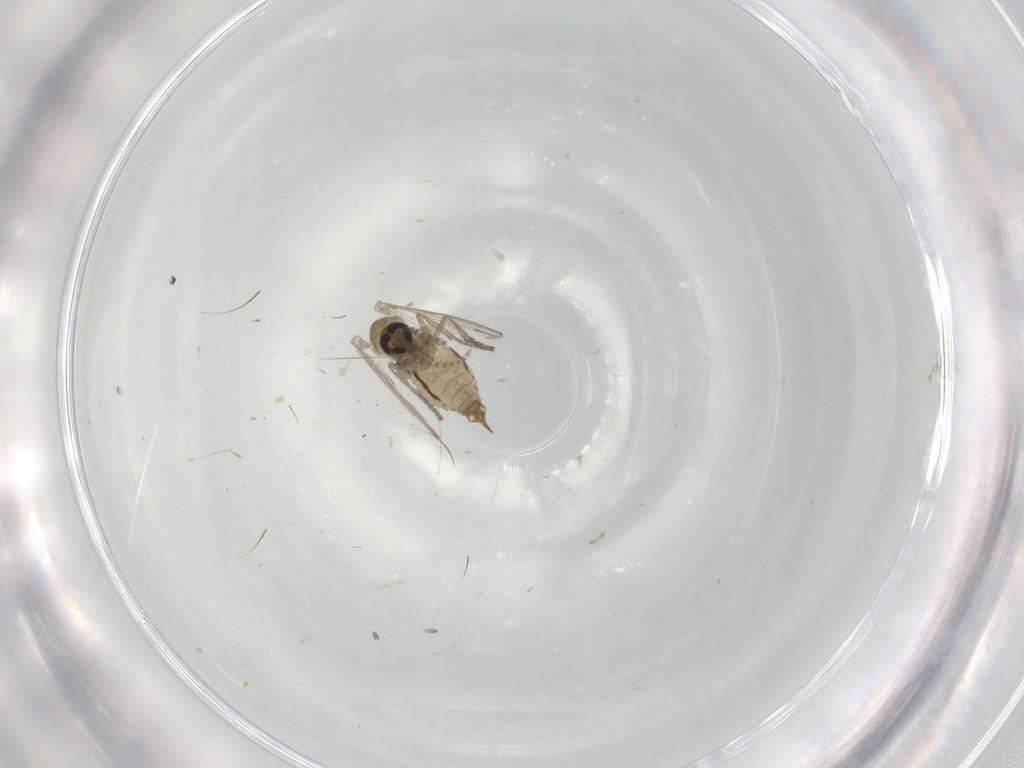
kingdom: Animalia
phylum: Arthropoda
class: Insecta
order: Diptera
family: Psychodidae
